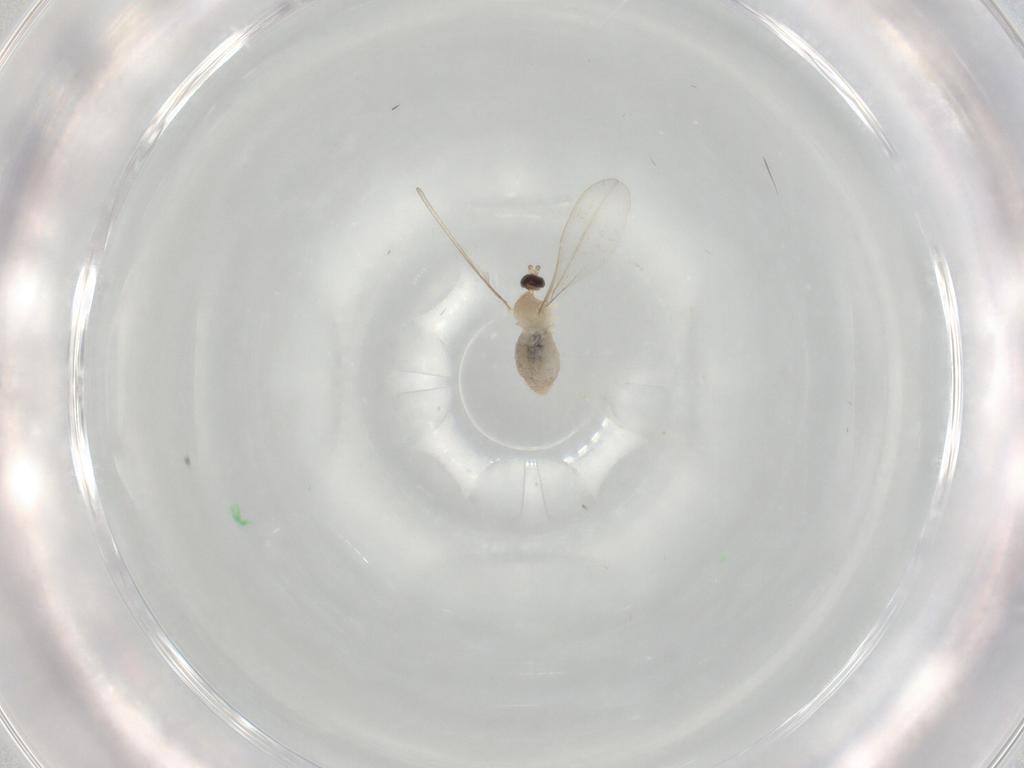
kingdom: Animalia
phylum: Arthropoda
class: Insecta
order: Diptera
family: Cecidomyiidae
